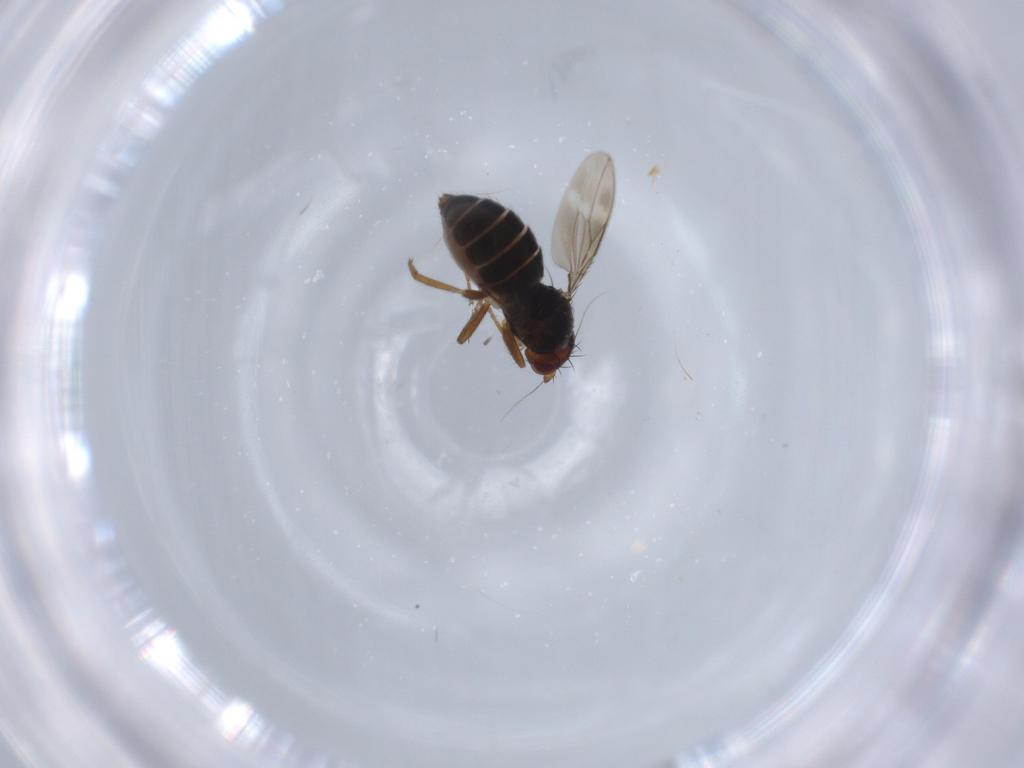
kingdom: Animalia
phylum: Arthropoda
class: Insecta
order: Diptera
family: Sphaeroceridae
